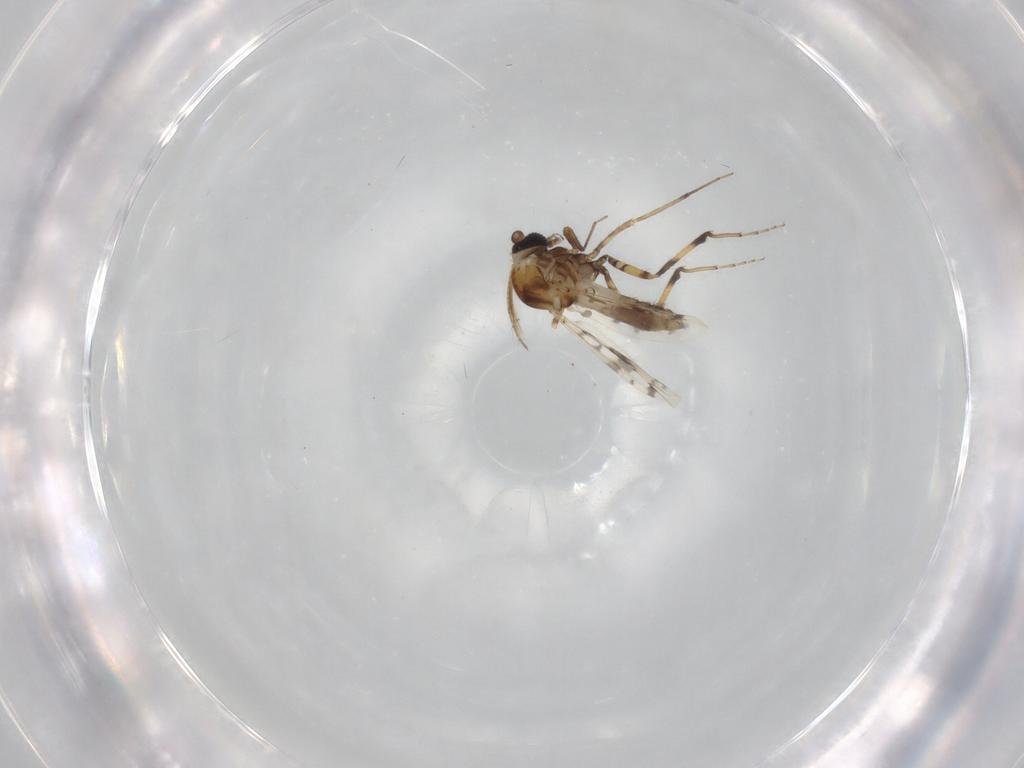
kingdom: Animalia
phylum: Arthropoda
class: Insecta
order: Diptera
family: Ceratopogonidae
